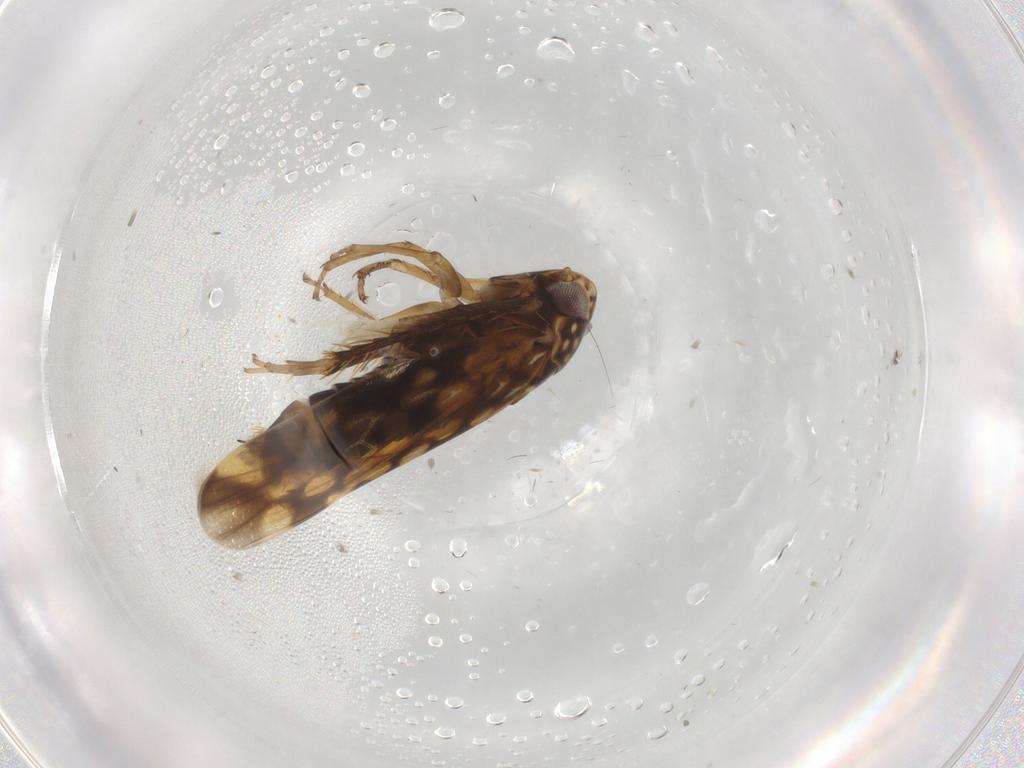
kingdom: Animalia
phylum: Arthropoda
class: Insecta
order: Hemiptera
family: Cicadellidae
